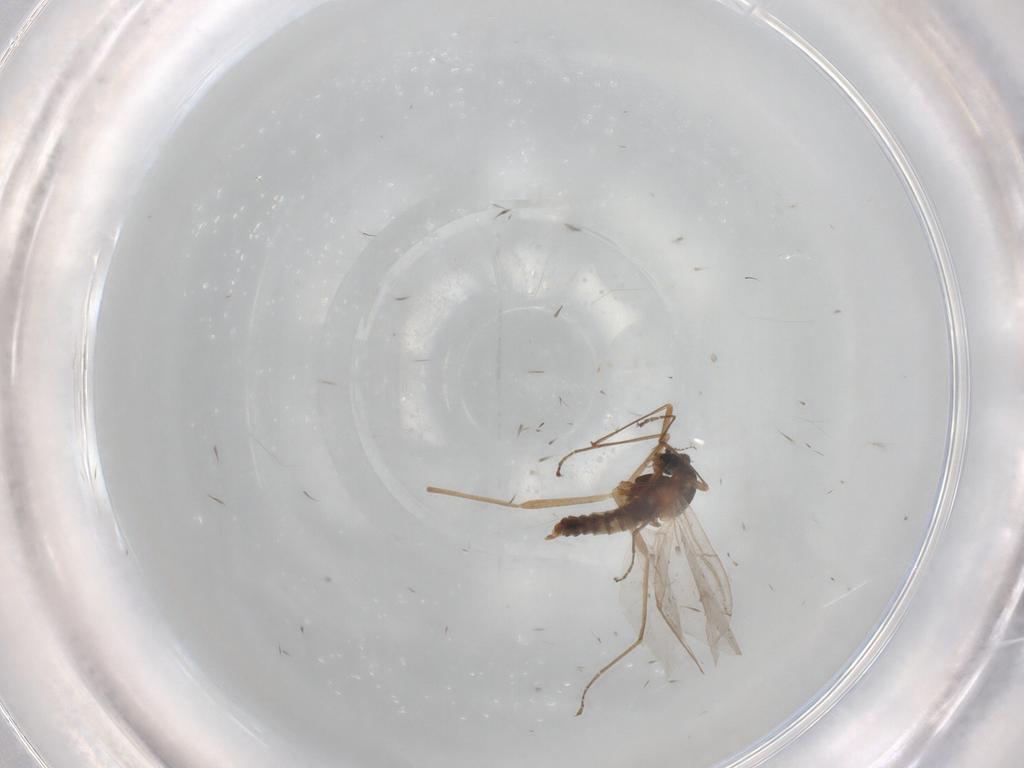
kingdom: Animalia
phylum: Arthropoda
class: Insecta
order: Diptera
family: Cecidomyiidae
